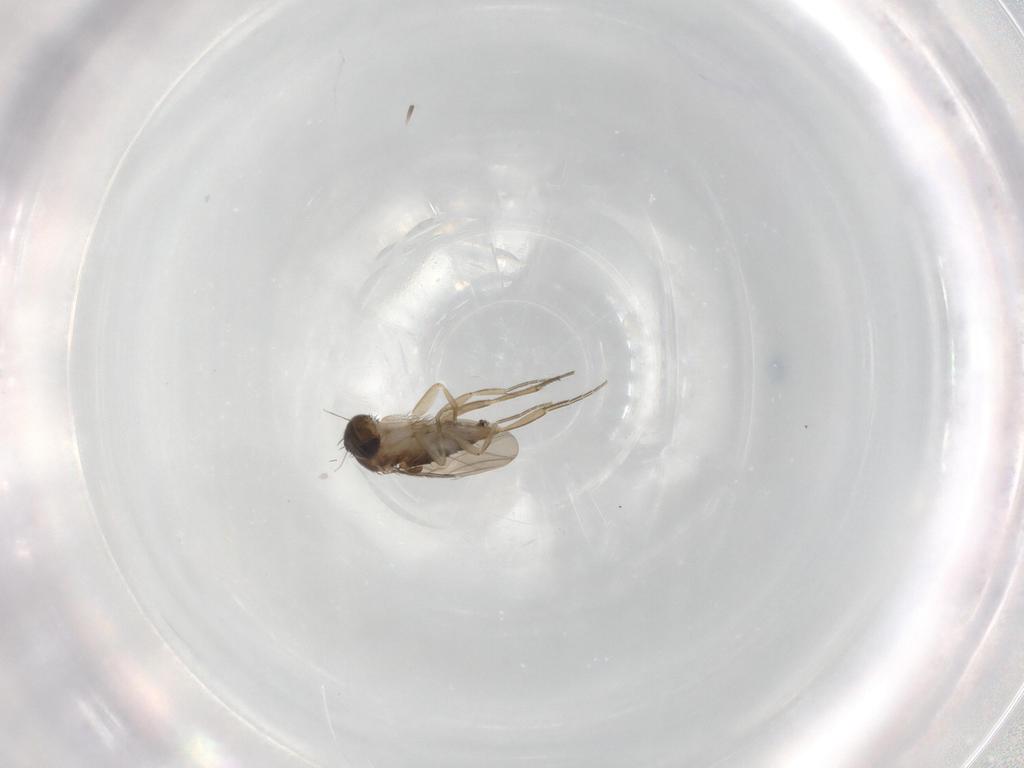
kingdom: Animalia
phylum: Arthropoda
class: Insecta
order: Diptera
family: Phoridae
